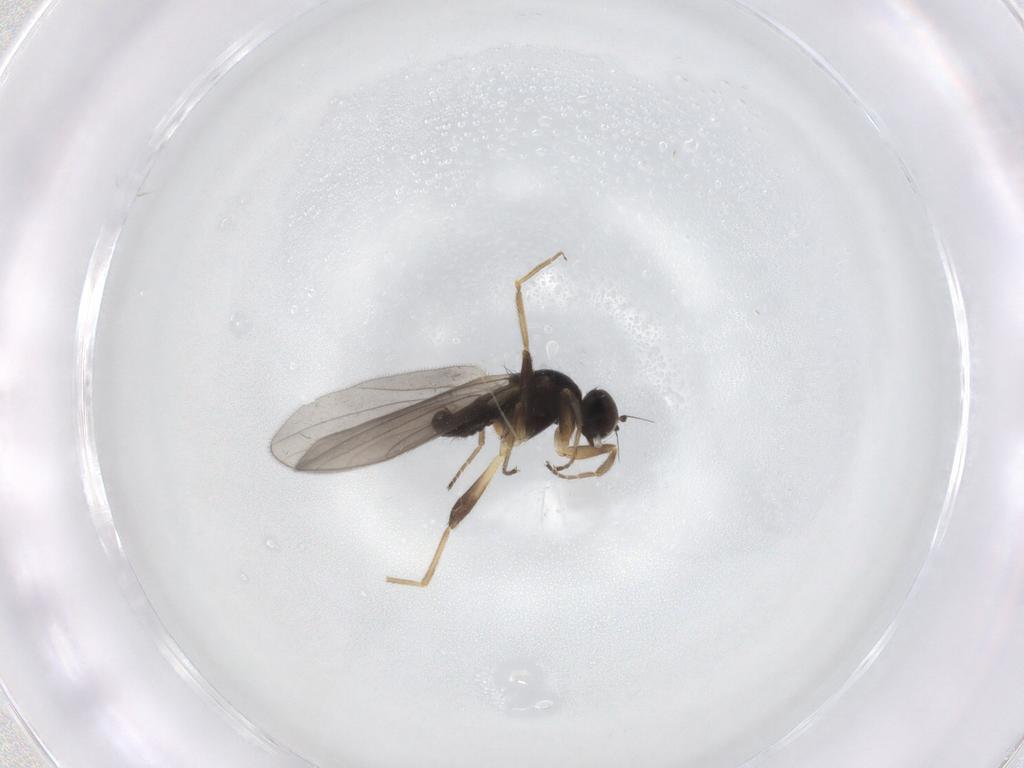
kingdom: Animalia
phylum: Arthropoda
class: Insecta
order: Diptera
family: Hybotidae
